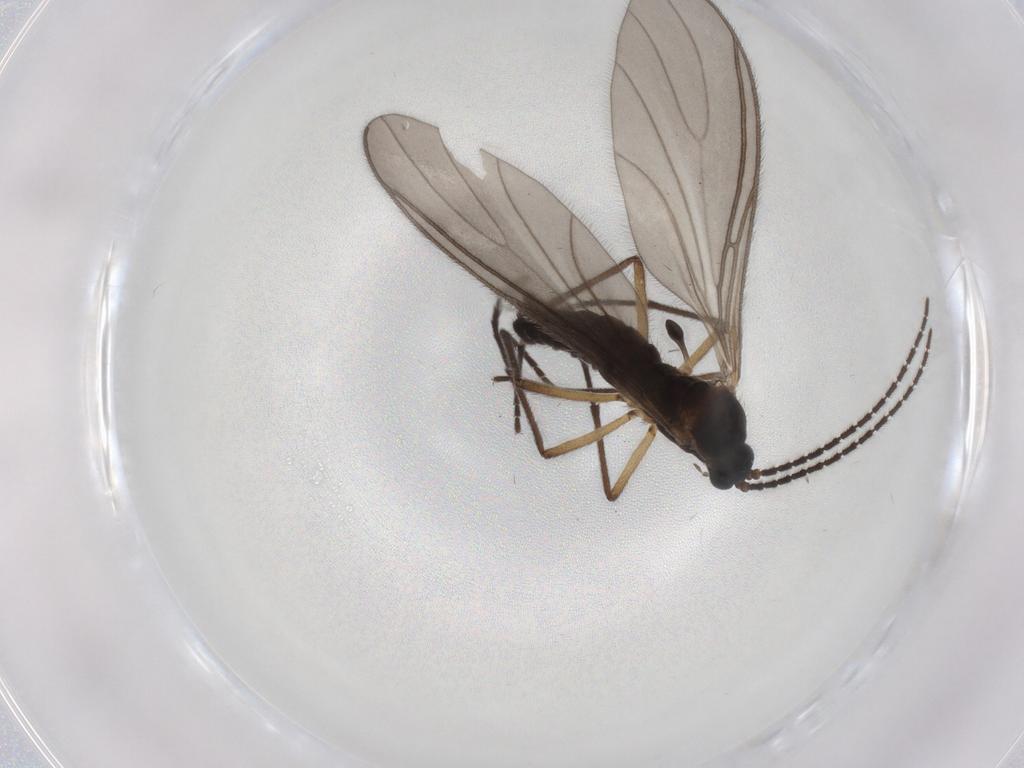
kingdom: Animalia
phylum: Arthropoda
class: Insecta
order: Diptera
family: Sciaridae
